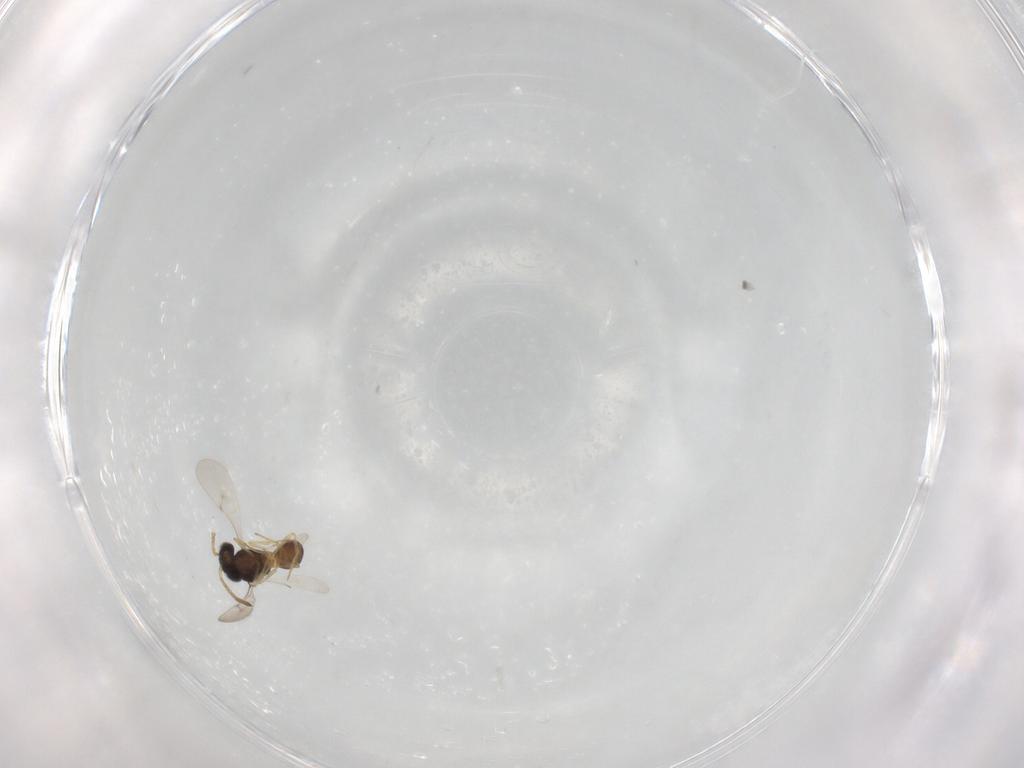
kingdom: Animalia
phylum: Arthropoda
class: Insecta
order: Hymenoptera
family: Scelionidae
